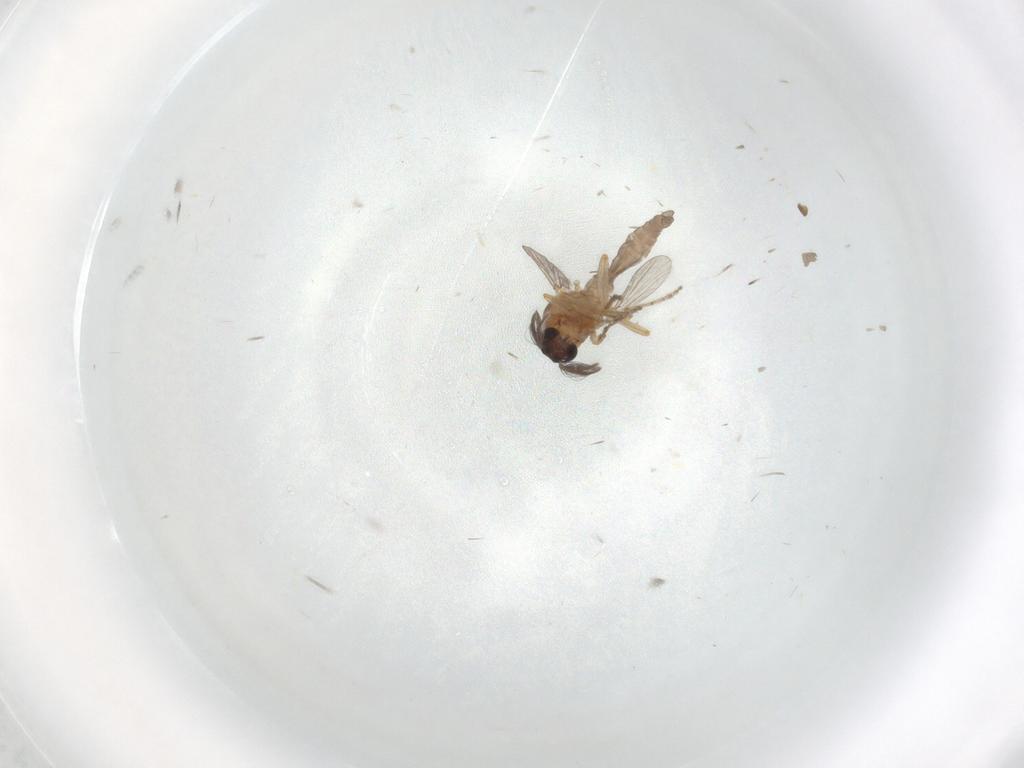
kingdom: Animalia
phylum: Arthropoda
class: Insecta
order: Diptera
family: Ceratopogonidae
